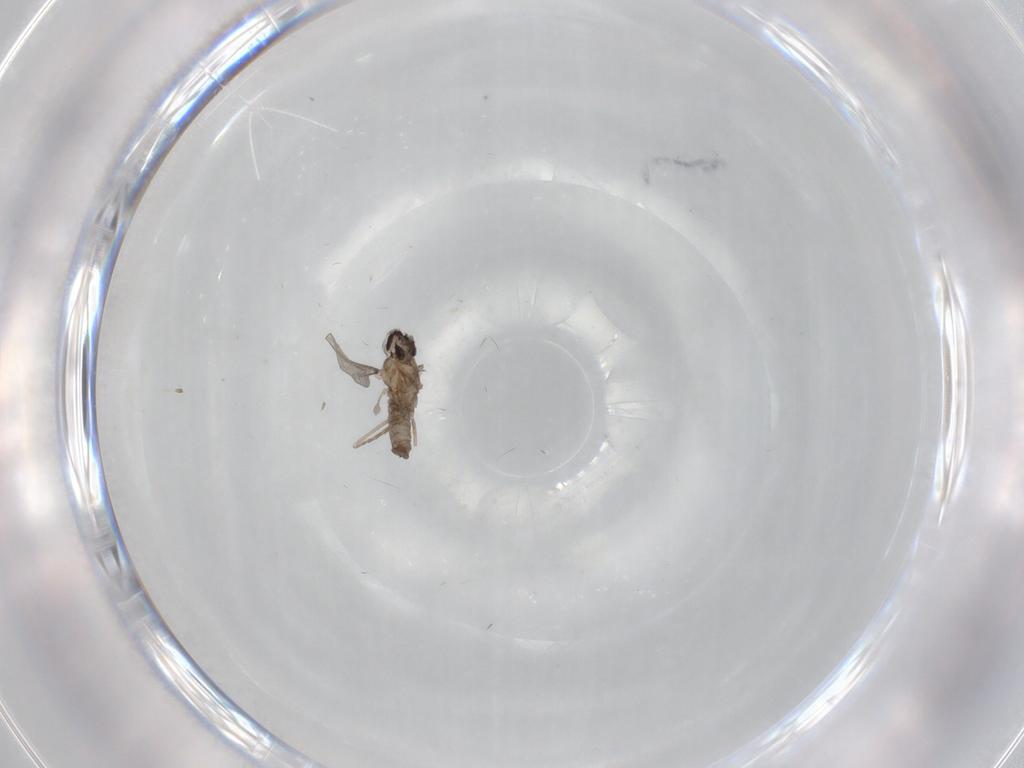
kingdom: Animalia
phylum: Arthropoda
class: Insecta
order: Diptera
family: Cecidomyiidae
